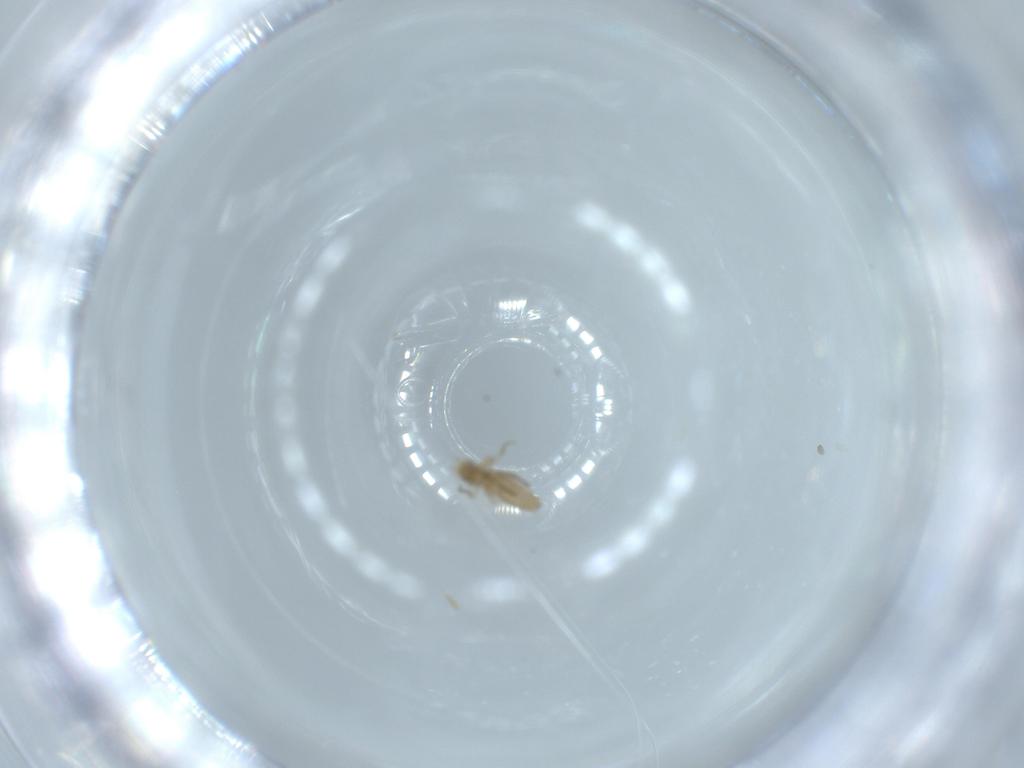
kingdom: Animalia
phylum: Arthropoda
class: Insecta
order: Diptera
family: Phoridae
